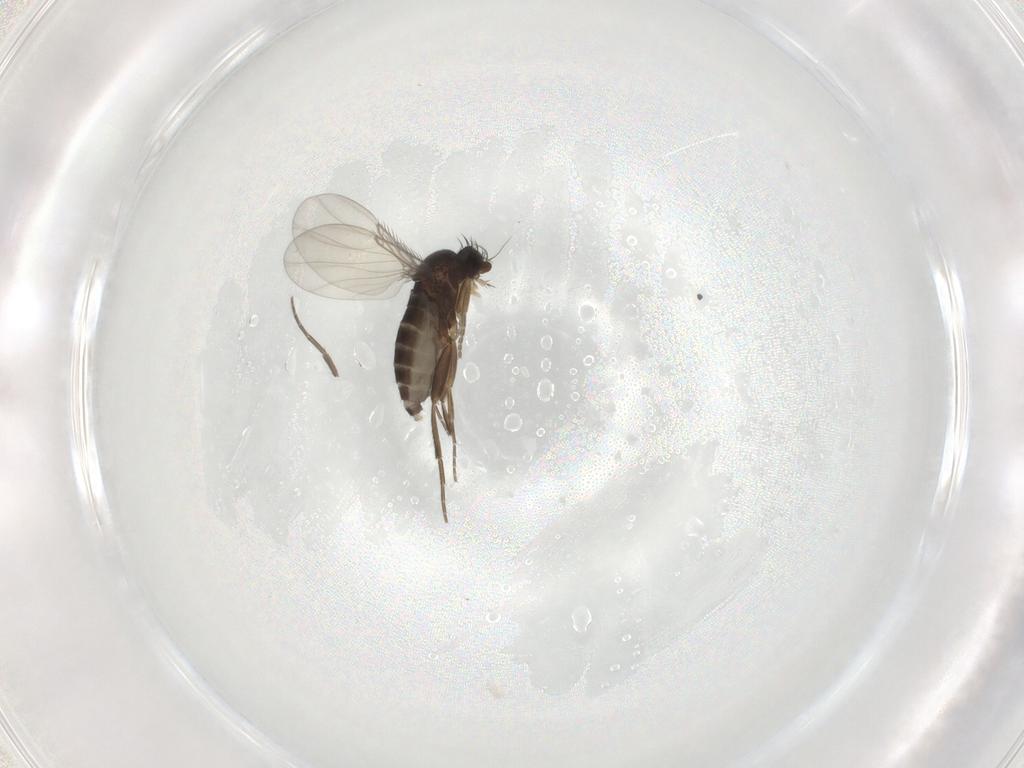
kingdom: Animalia
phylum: Arthropoda
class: Insecta
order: Diptera
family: Phoridae
